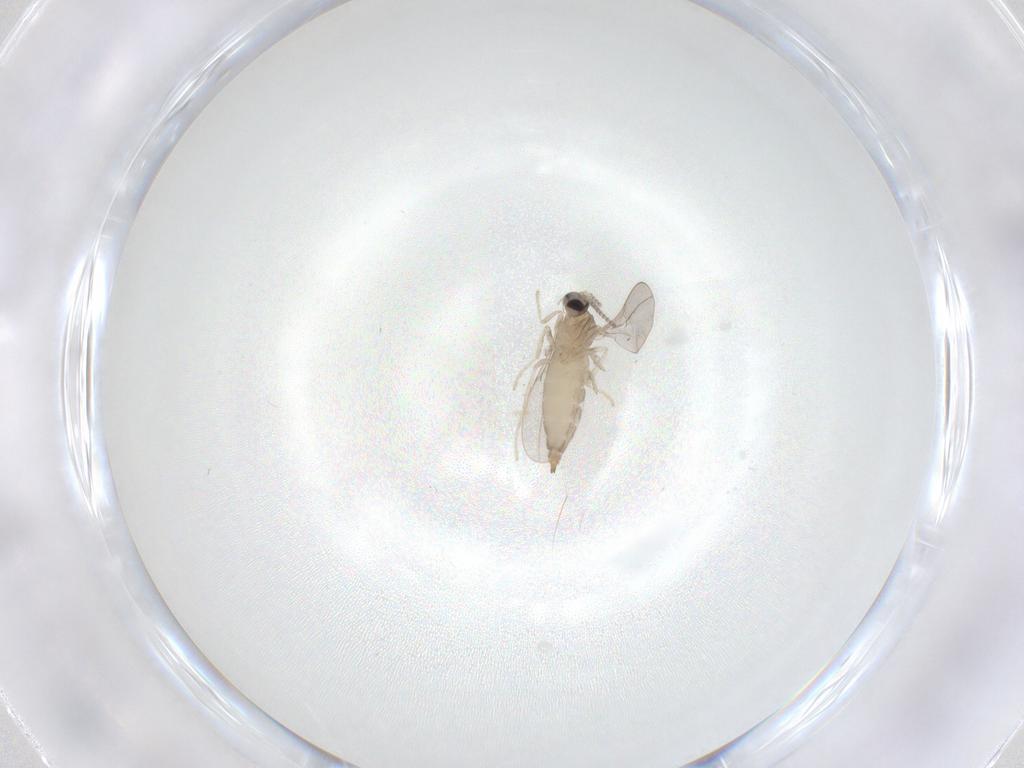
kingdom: Animalia
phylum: Arthropoda
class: Insecta
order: Diptera
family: Cecidomyiidae
